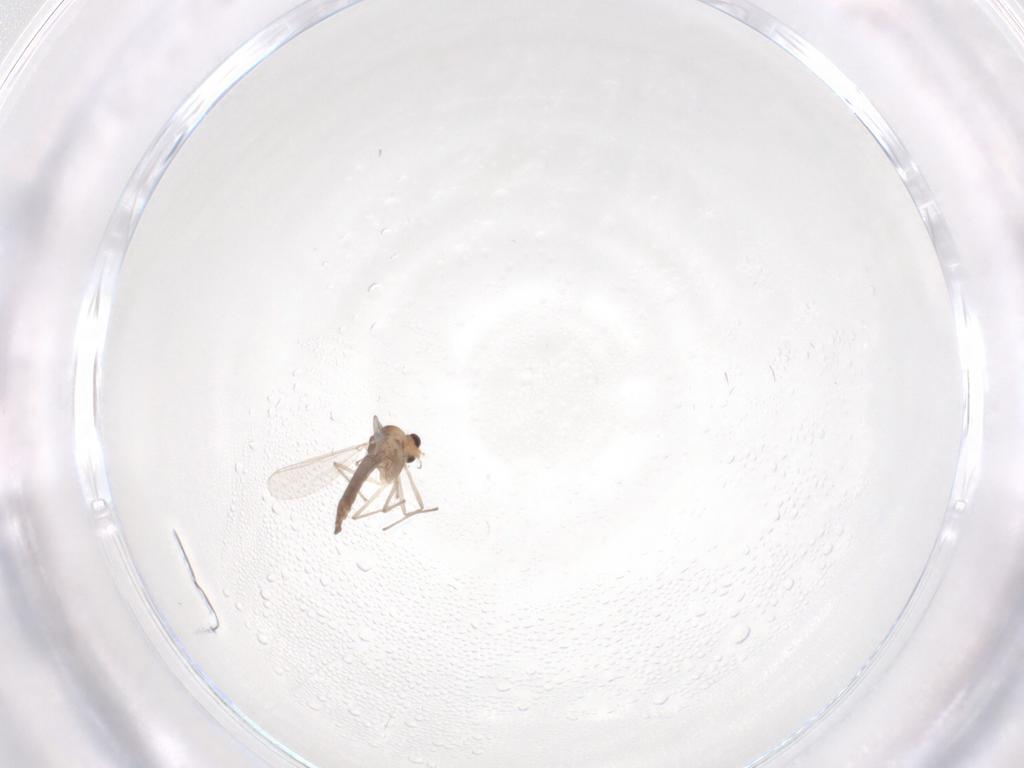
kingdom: Animalia
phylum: Arthropoda
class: Insecta
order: Diptera
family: Chironomidae
